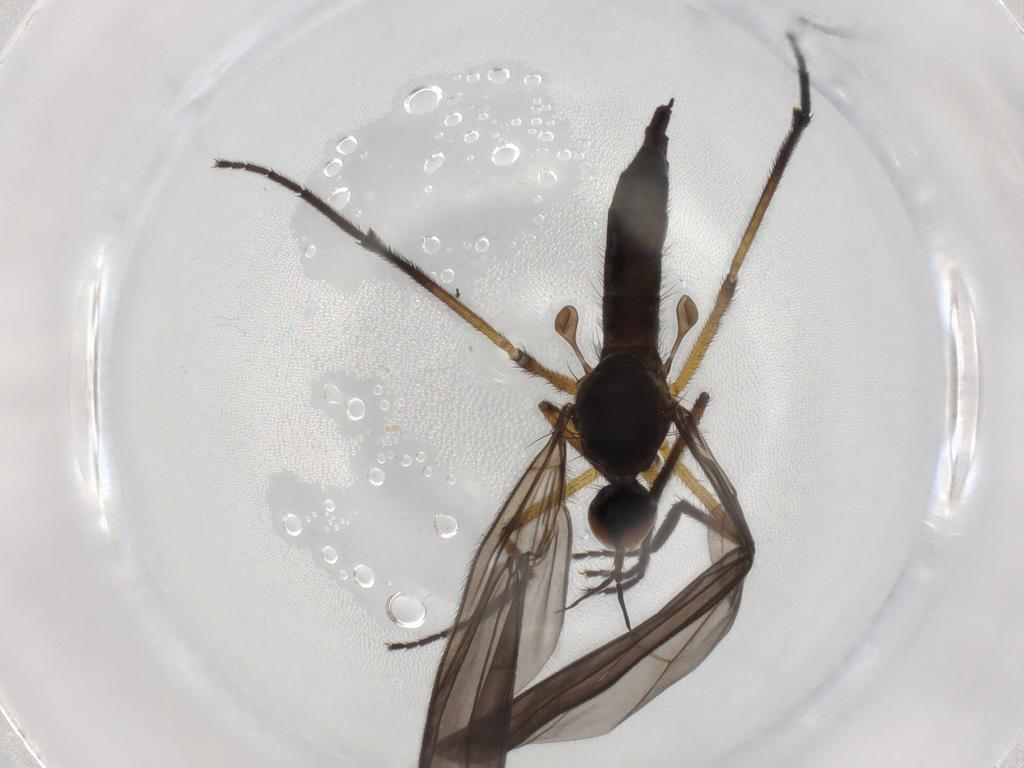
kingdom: Animalia
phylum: Arthropoda
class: Insecta
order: Diptera
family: Empididae
